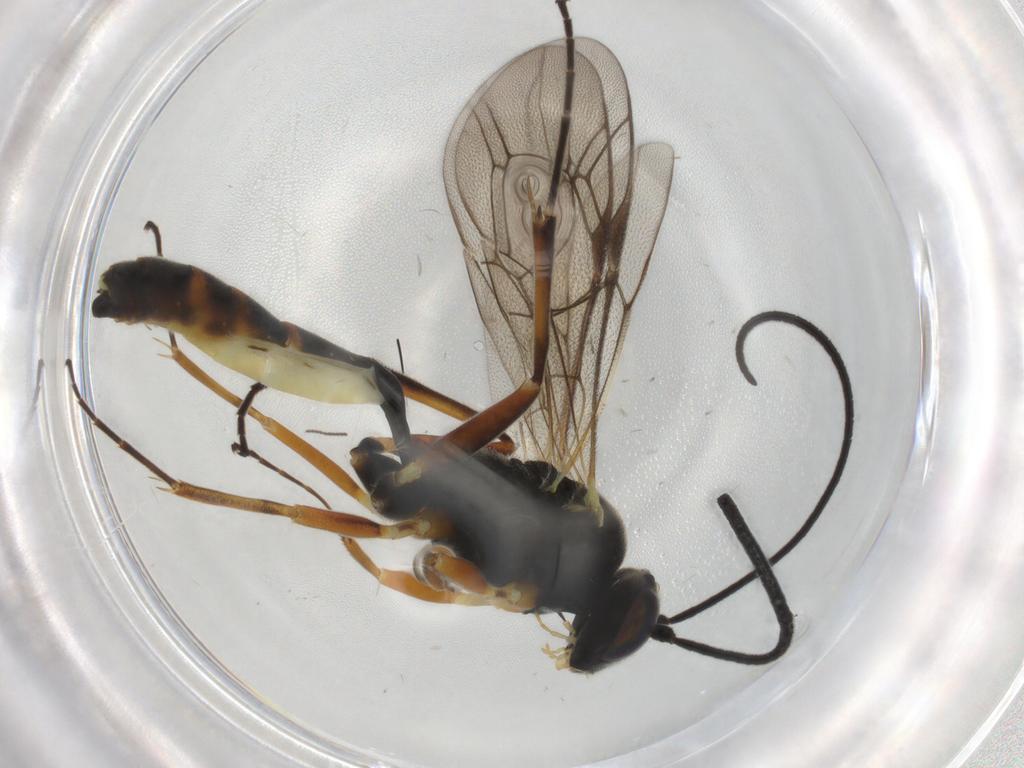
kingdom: Animalia
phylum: Arthropoda
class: Insecta
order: Hymenoptera
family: Ichneumonidae
